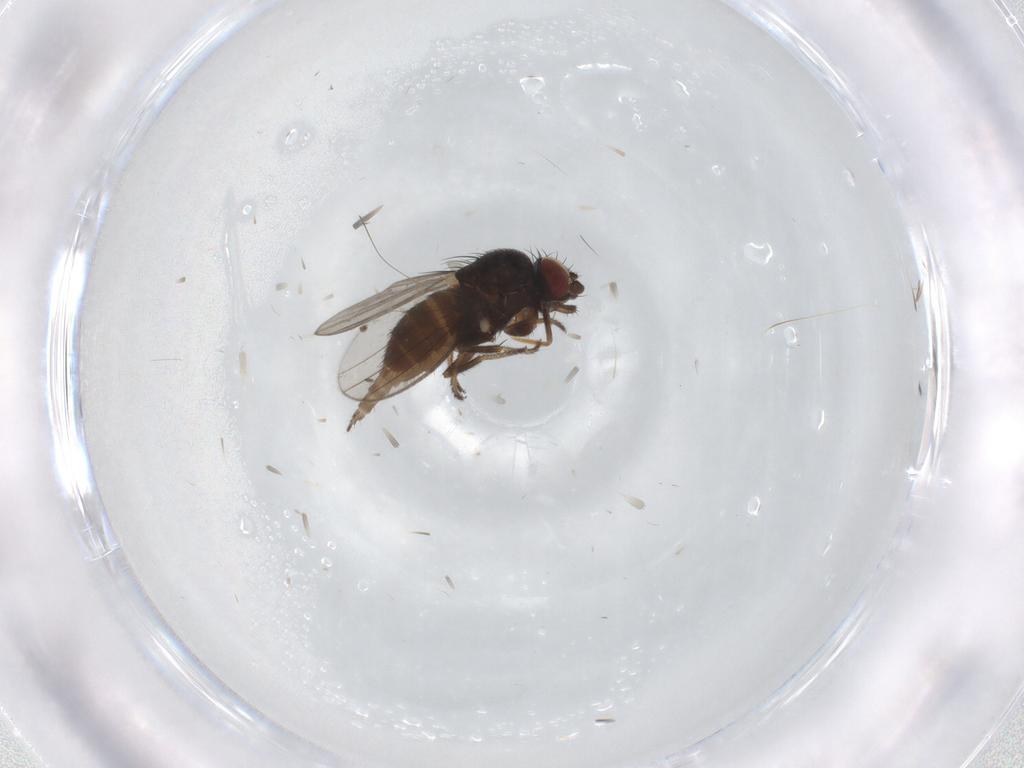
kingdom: Animalia
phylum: Arthropoda
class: Insecta
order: Diptera
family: Milichiidae
